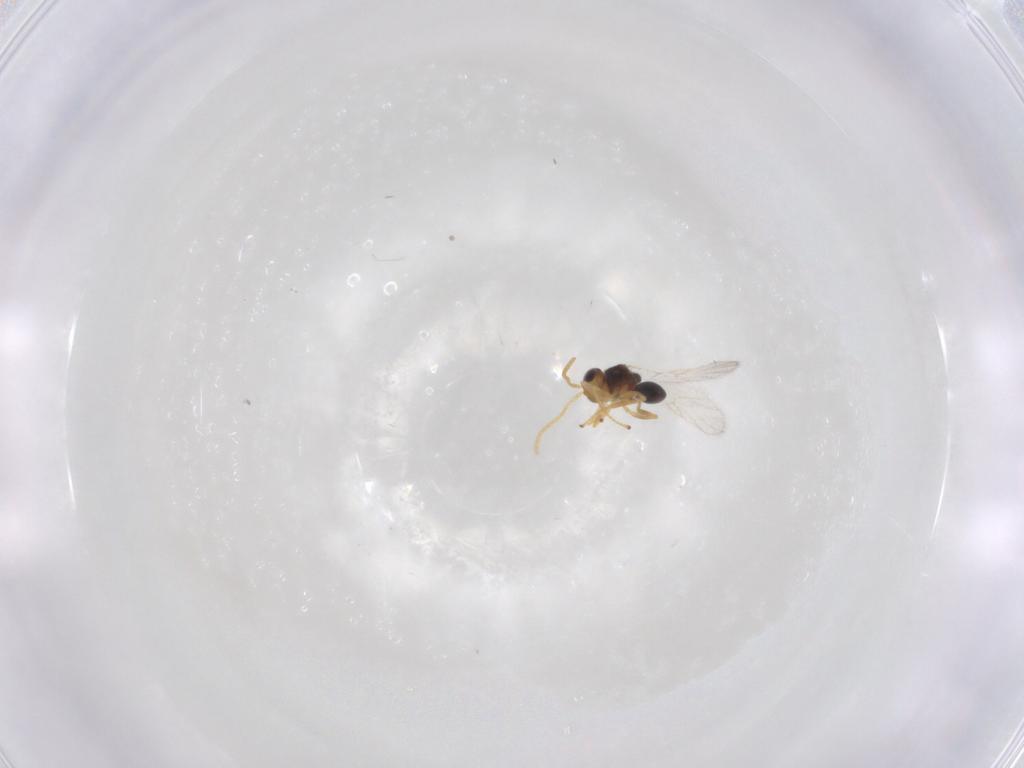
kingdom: Animalia
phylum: Arthropoda
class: Insecta
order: Hymenoptera
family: Figitidae
